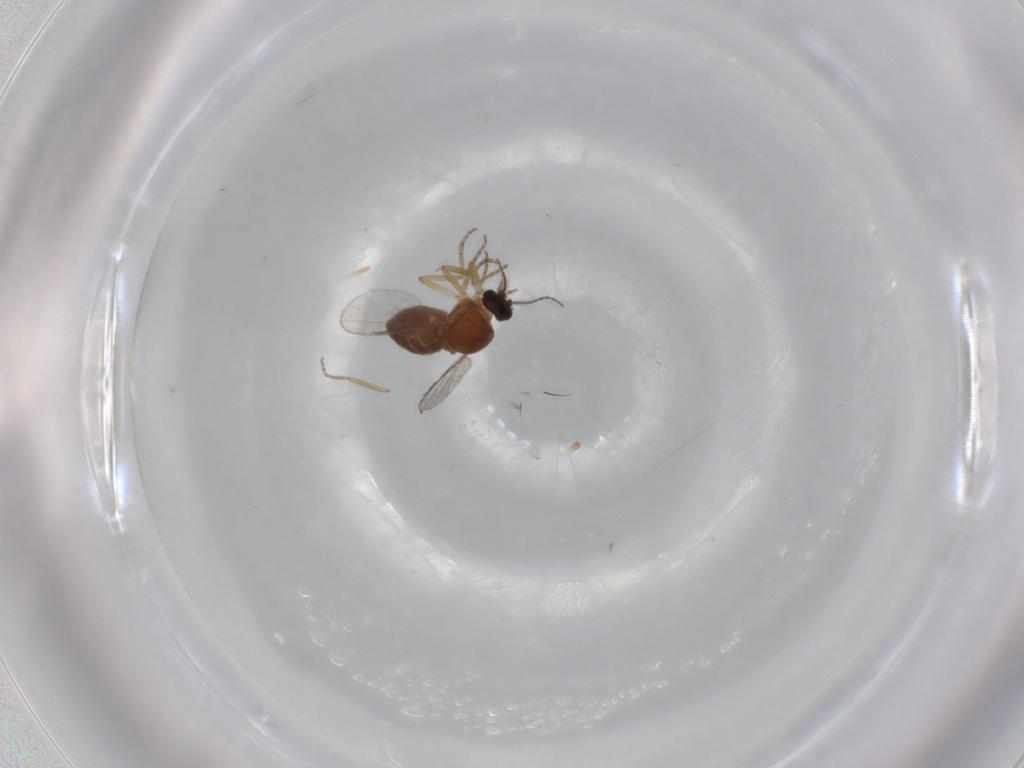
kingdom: Animalia
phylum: Arthropoda
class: Insecta
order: Diptera
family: Ceratopogonidae
